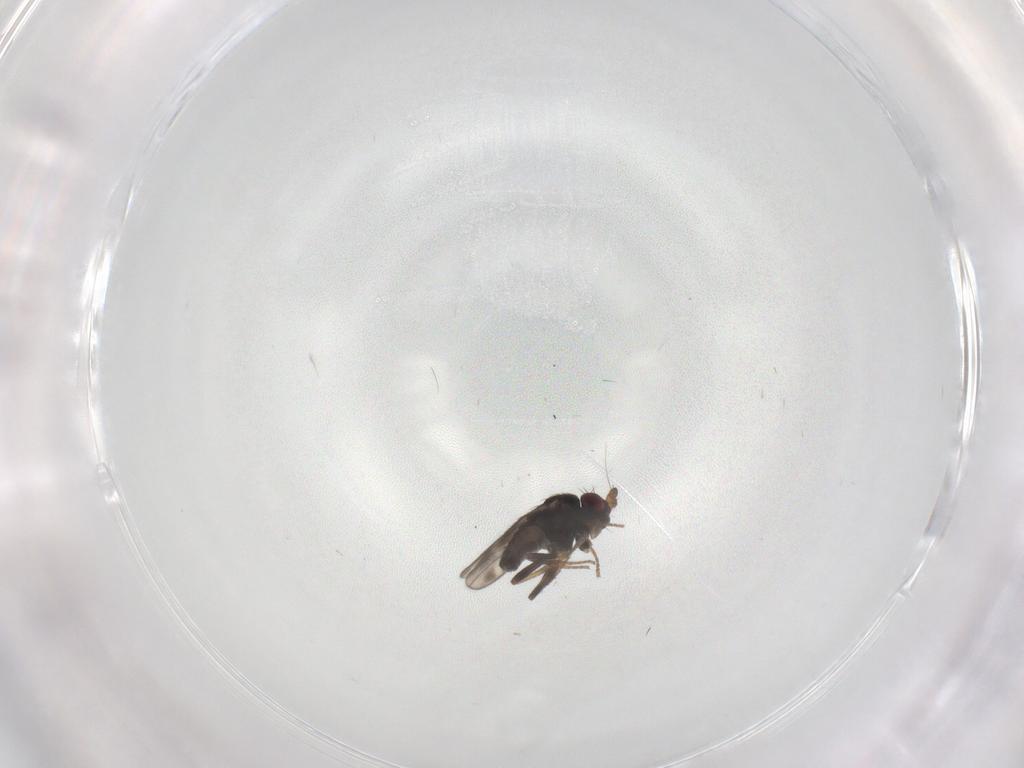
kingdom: Animalia
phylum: Arthropoda
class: Insecta
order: Diptera
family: Sphaeroceridae
